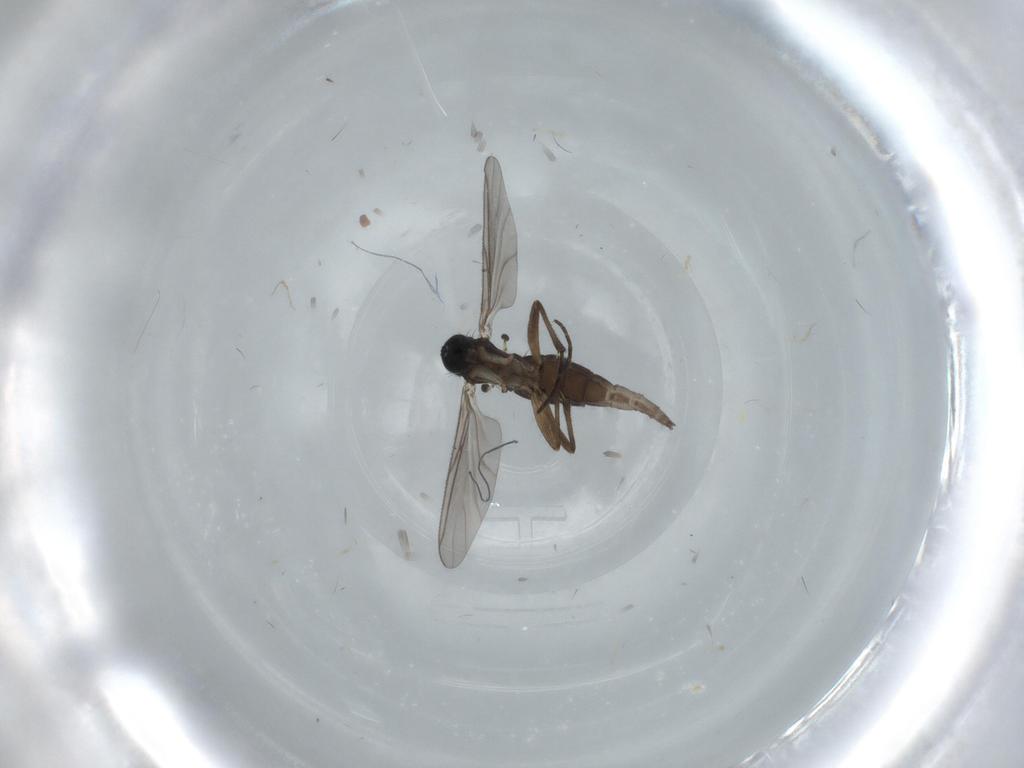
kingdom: Animalia
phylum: Arthropoda
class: Insecta
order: Diptera
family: Sciaridae
